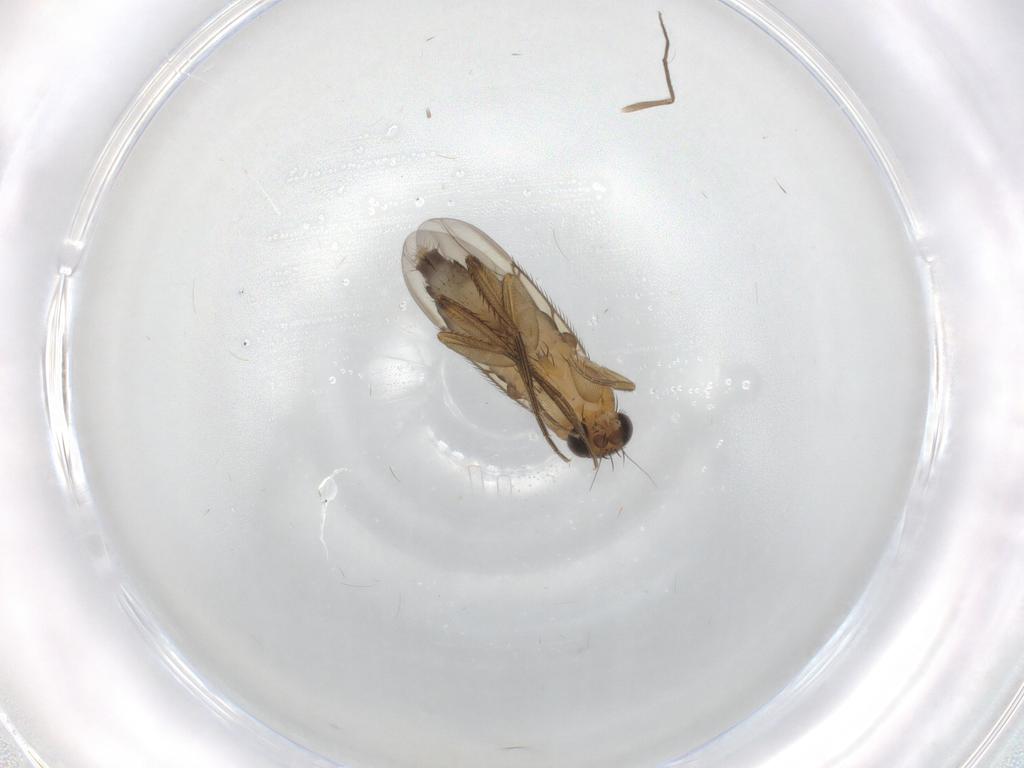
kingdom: Animalia
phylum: Arthropoda
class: Insecta
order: Diptera
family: Phoridae
